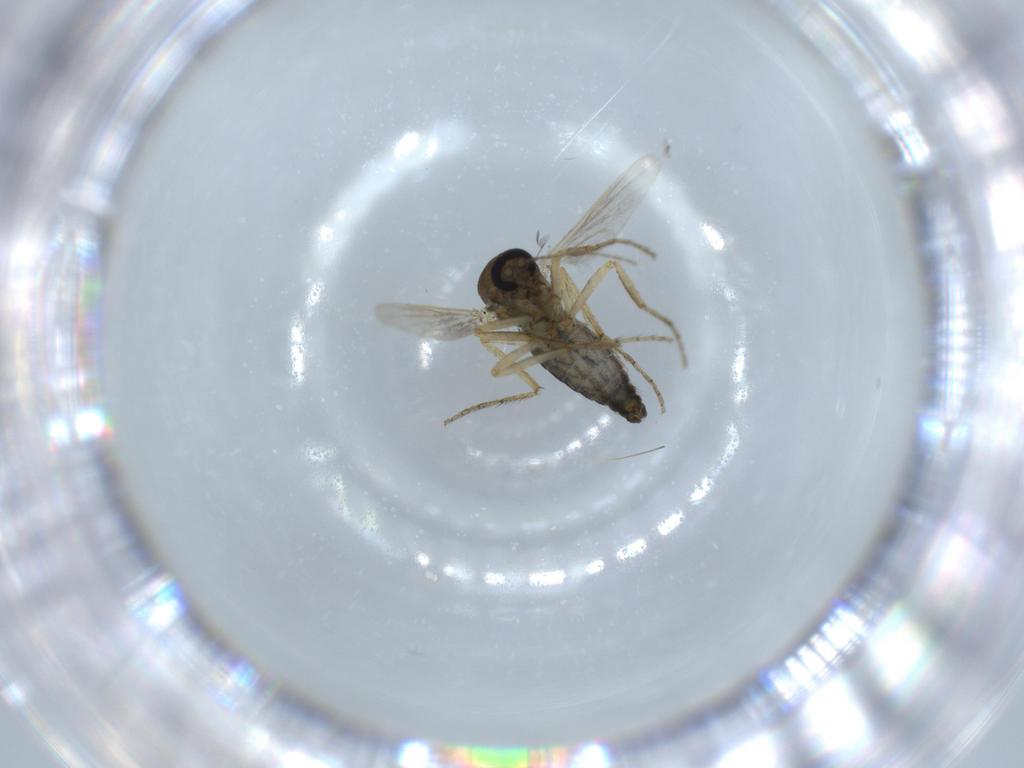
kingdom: Animalia
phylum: Arthropoda
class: Insecta
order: Diptera
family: Ceratopogonidae
